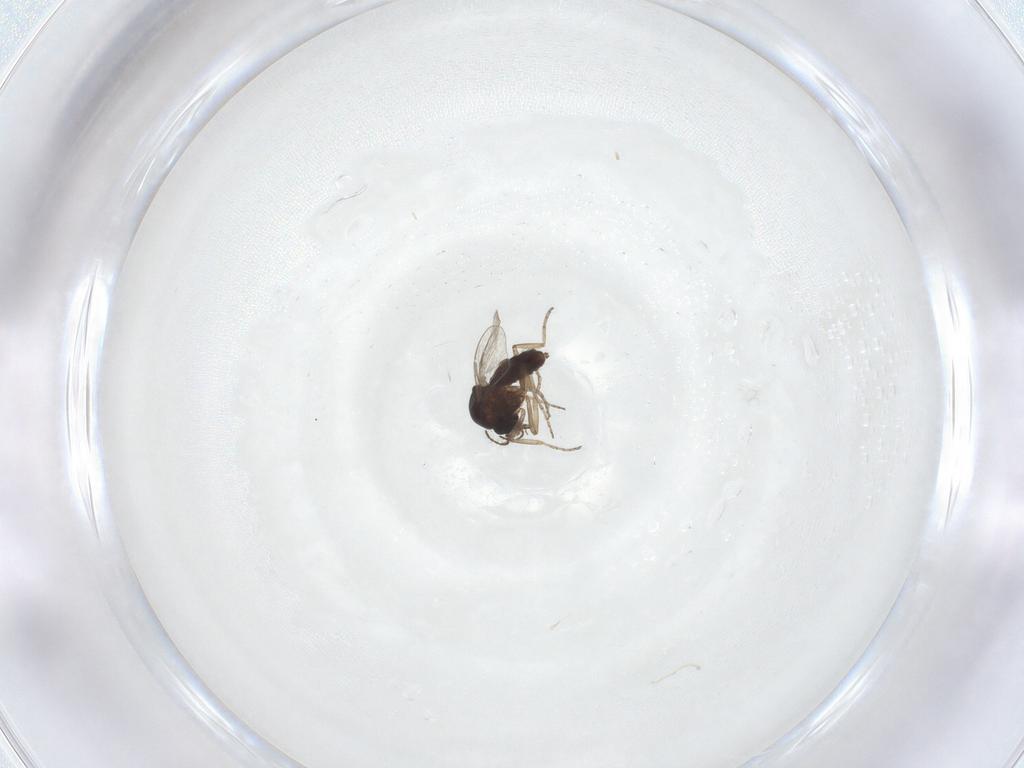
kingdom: Animalia
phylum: Arthropoda
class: Insecta
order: Diptera
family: Ceratopogonidae
